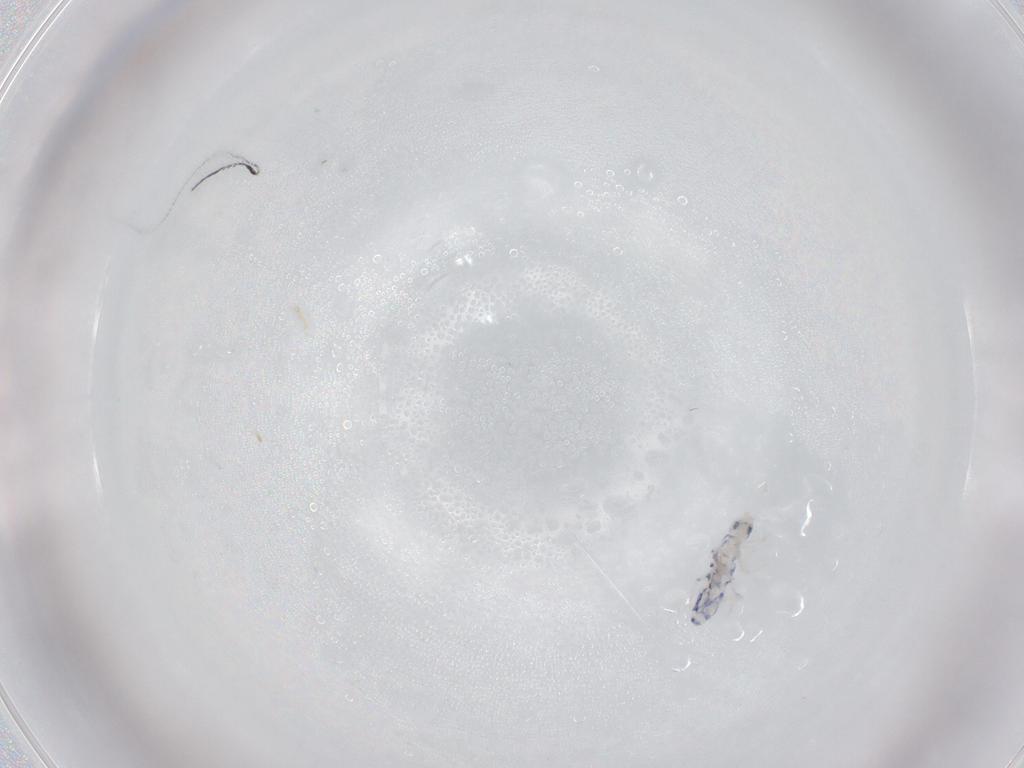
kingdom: Animalia
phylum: Arthropoda
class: Collembola
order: Entomobryomorpha
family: Entomobryidae
